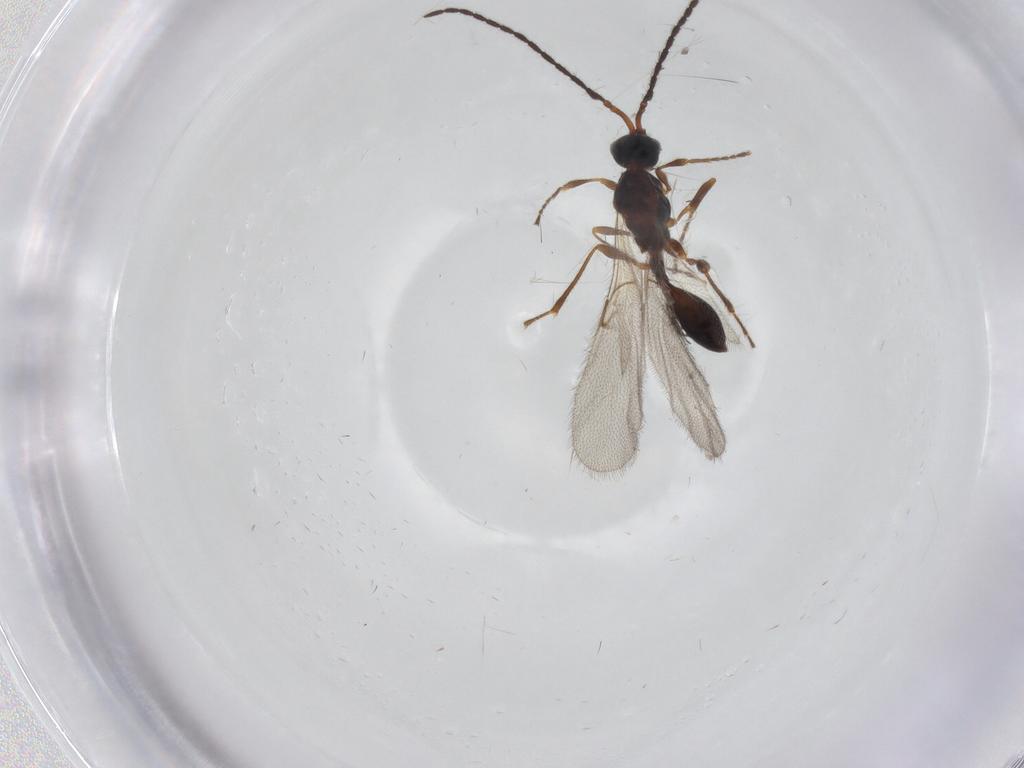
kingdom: Animalia
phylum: Arthropoda
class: Insecta
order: Hymenoptera
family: Diapriidae
